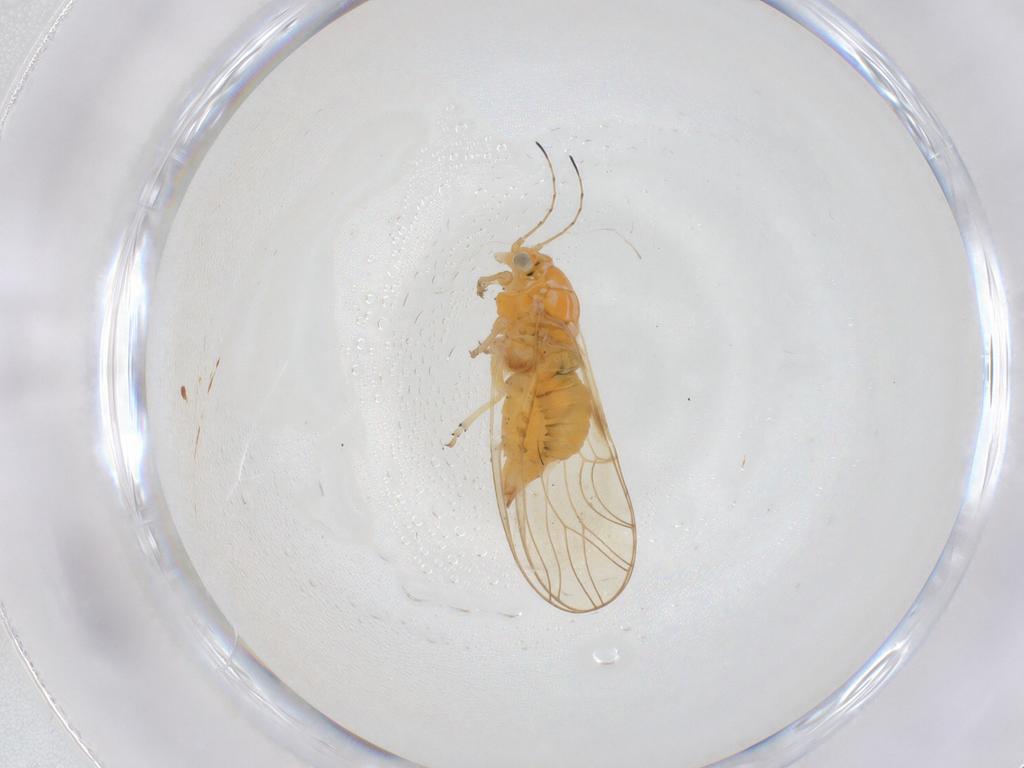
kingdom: Animalia
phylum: Arthropoda
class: Insecta
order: Hemiptera
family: Psyllidae
